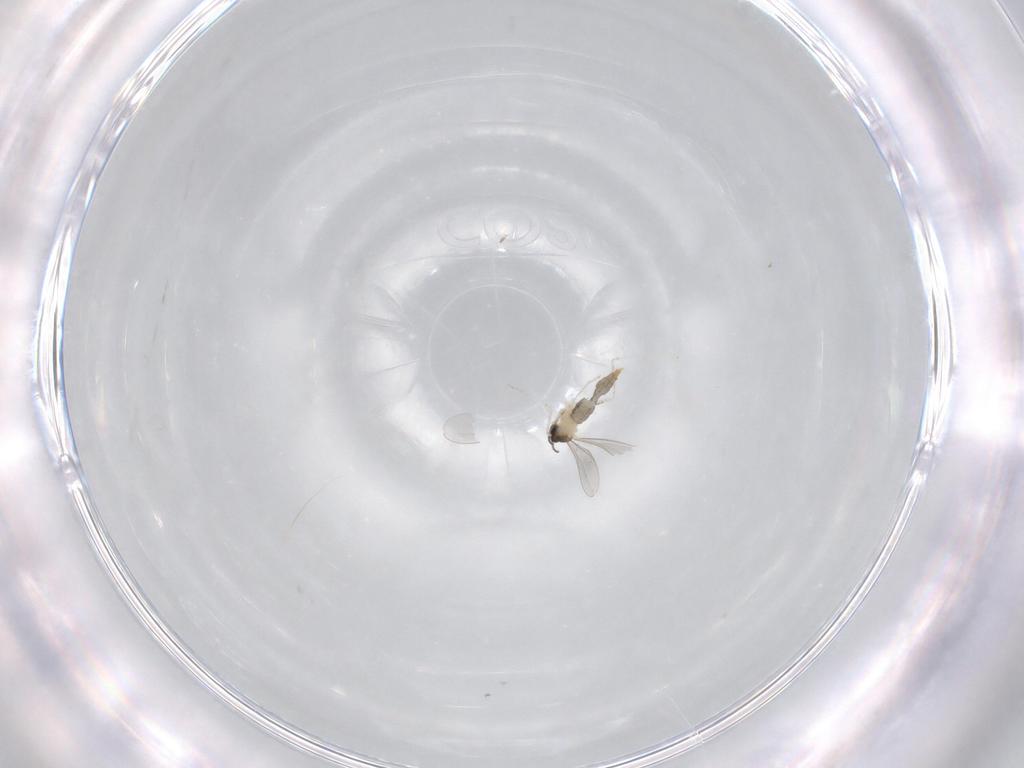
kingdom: Animalia
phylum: Arthropoda
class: Insecta
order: Diptera
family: Cecidomyiidae
